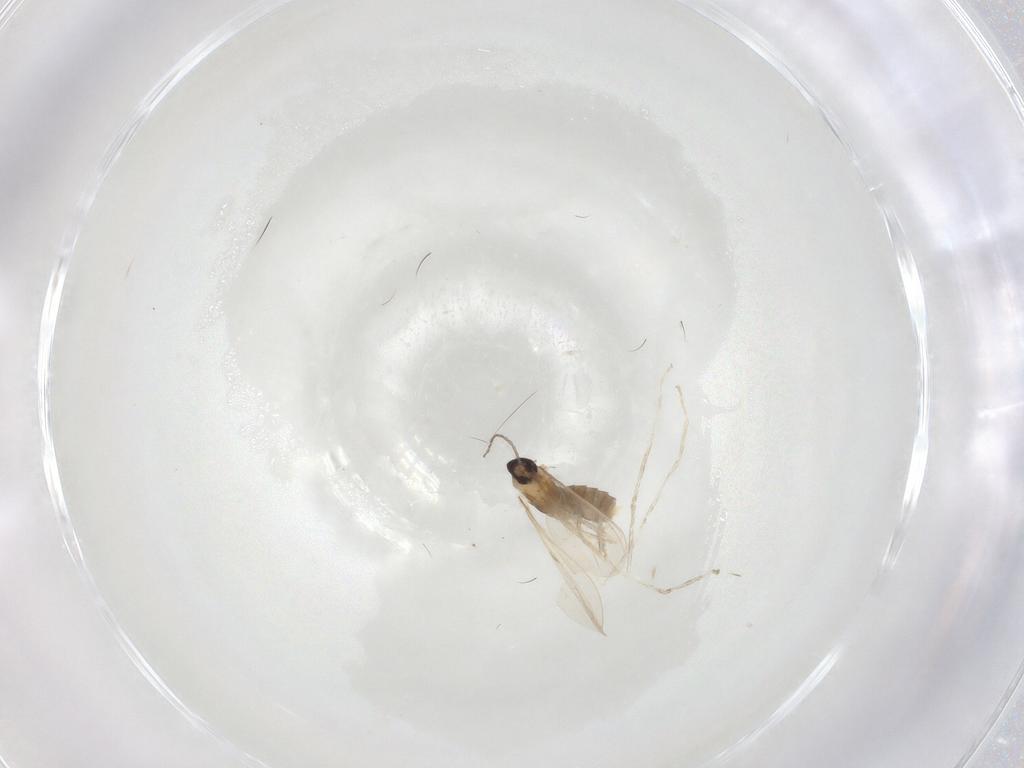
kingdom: Animalia
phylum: Arthropoda
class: Insecta
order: Diptera
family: Cecidomyiidae
